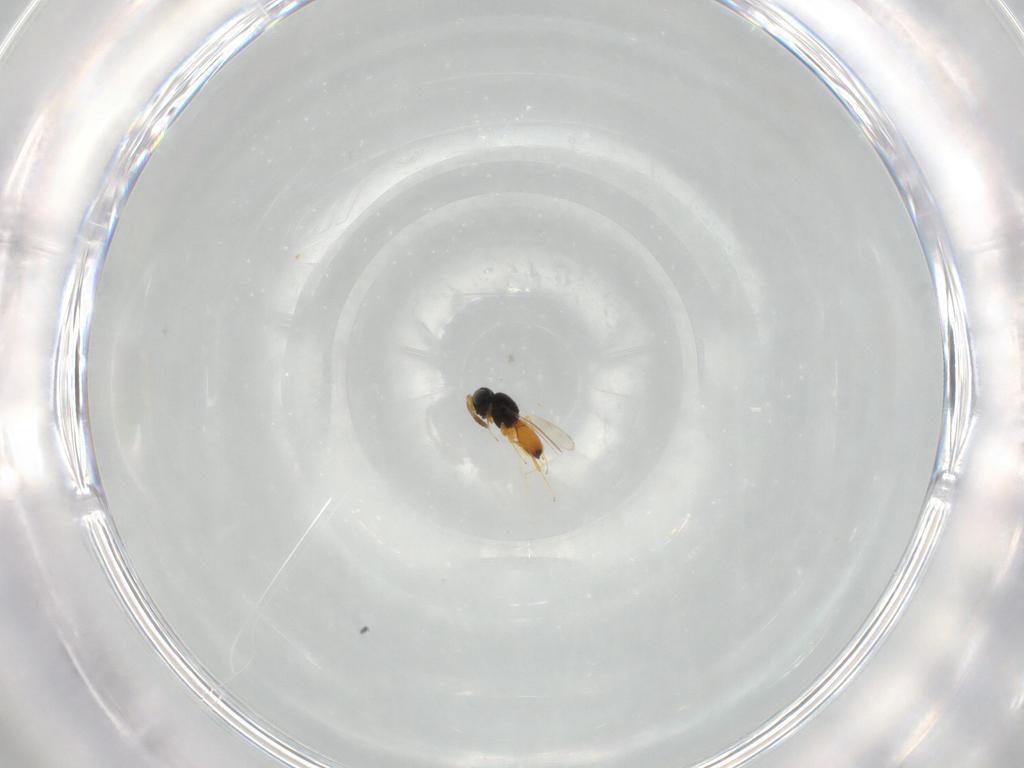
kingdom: Animalia
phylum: Arthropoda
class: Insecta
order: Hymenoptera
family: Scelionidae
